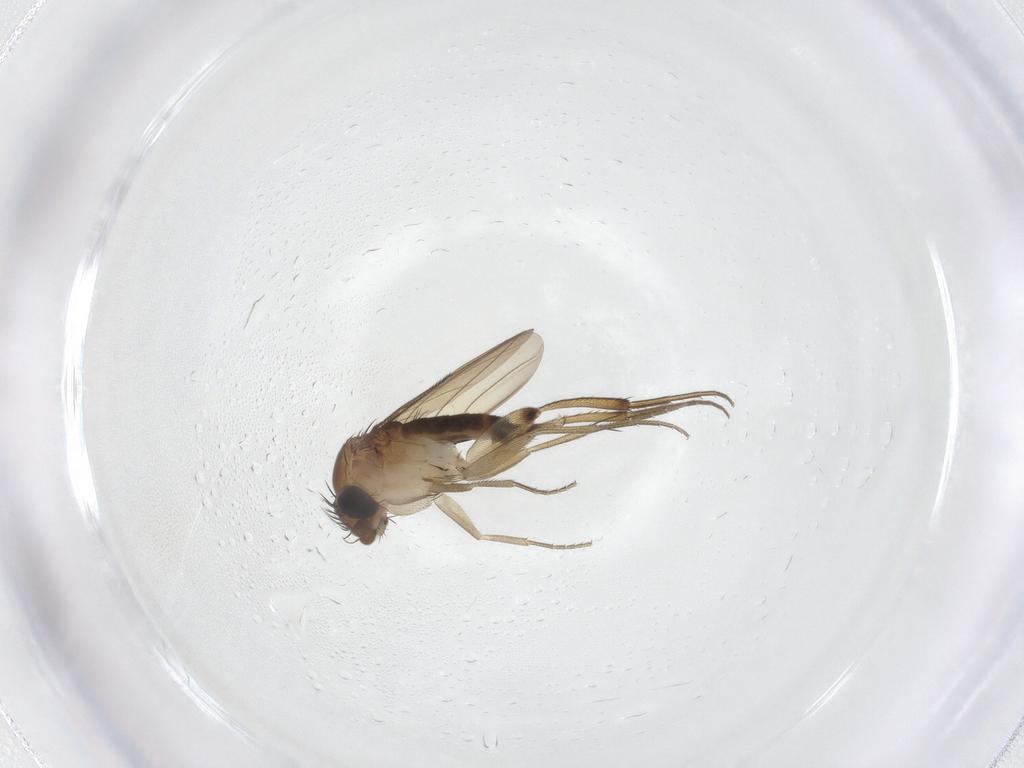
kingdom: Animalia
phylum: Arthropoda
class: Insecta
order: Diptera
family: Phoridae
